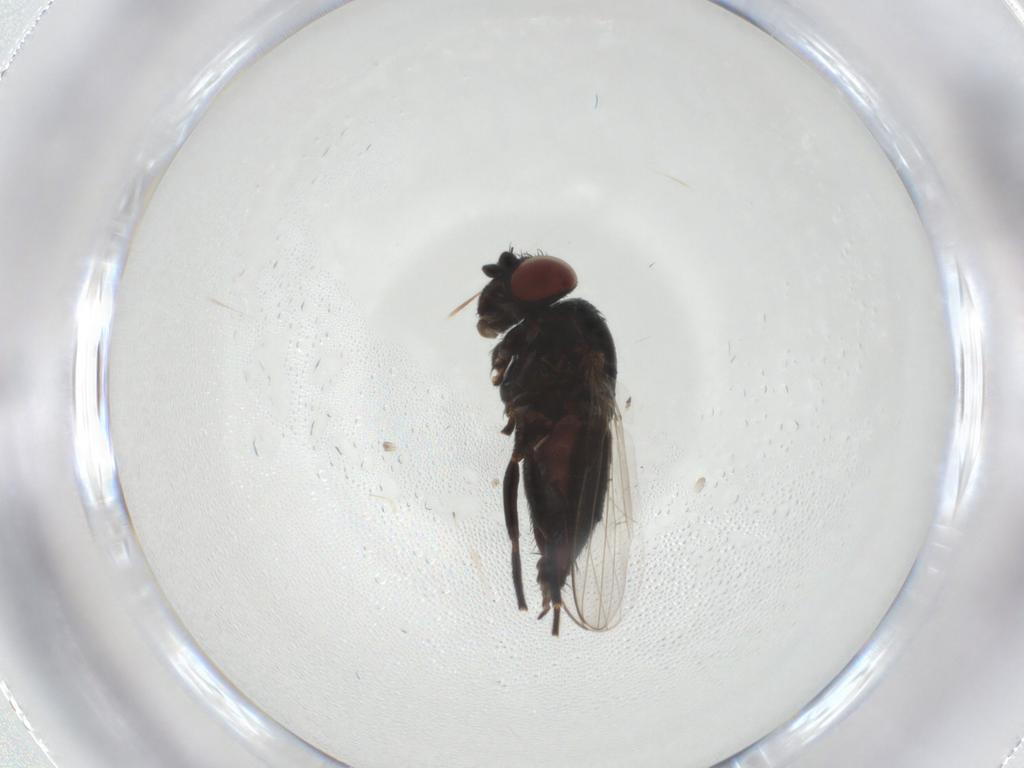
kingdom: Animalia
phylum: Arthropoda
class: Insecta
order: Diptera
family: Milichiidae
